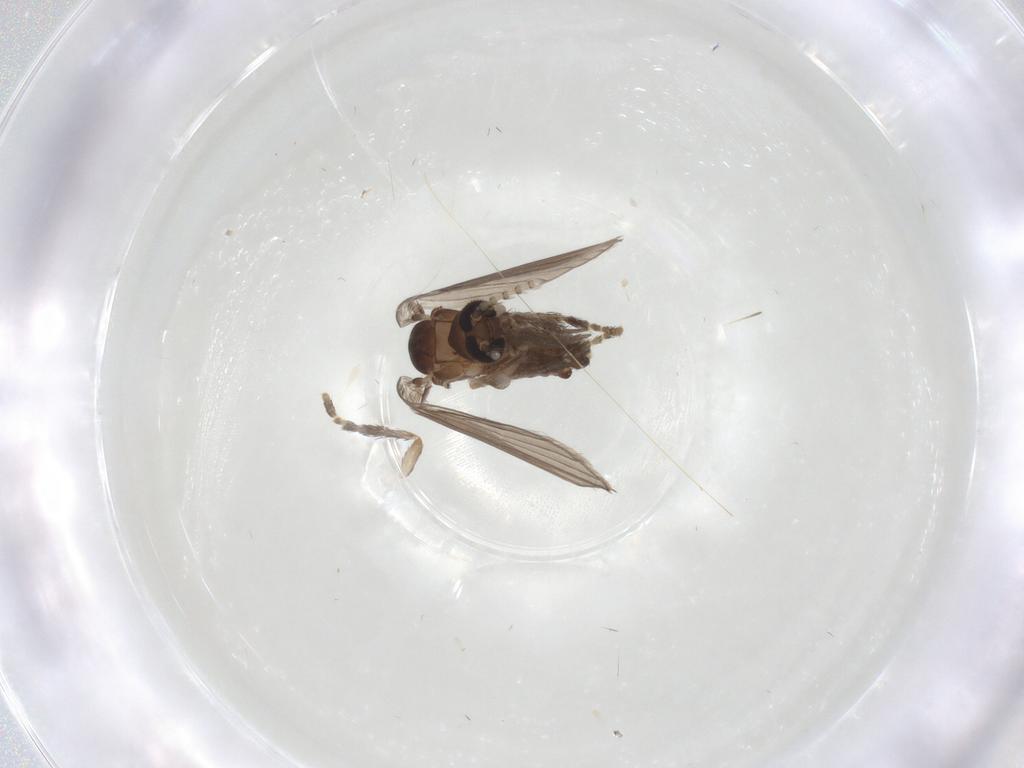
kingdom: Animalia
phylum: Arthropoda
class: Insecta
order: Diptera
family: Psychodidae
